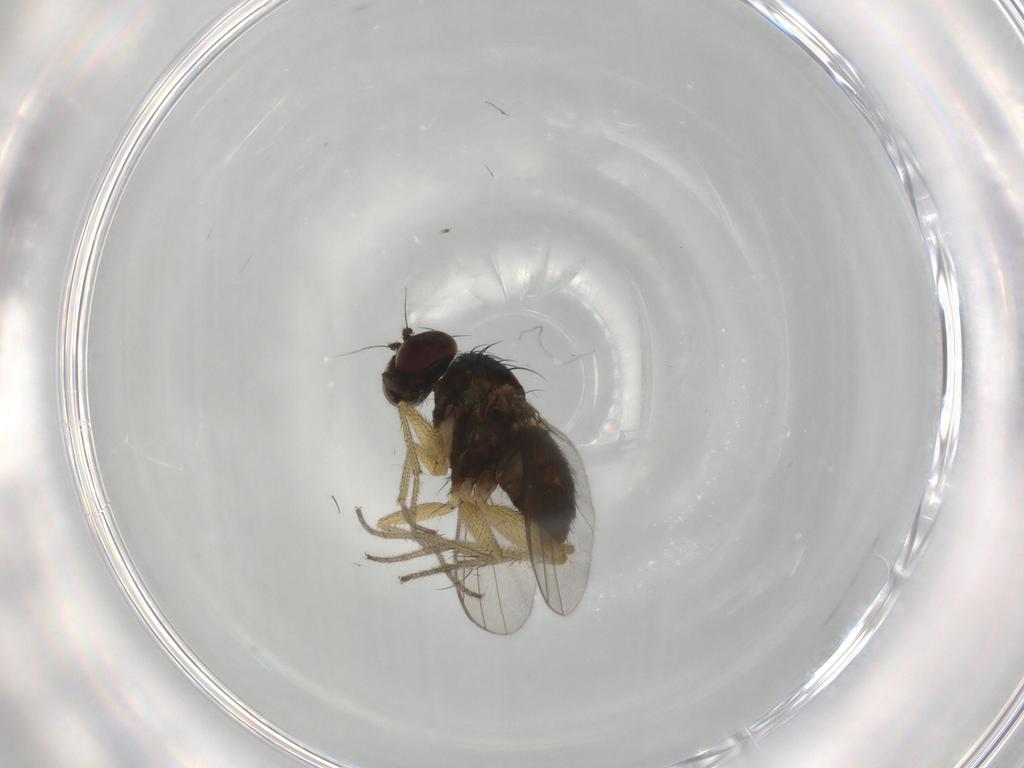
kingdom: Animalia
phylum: Arthropoda
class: Insecta
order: Diptera
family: Dolichopodidae
